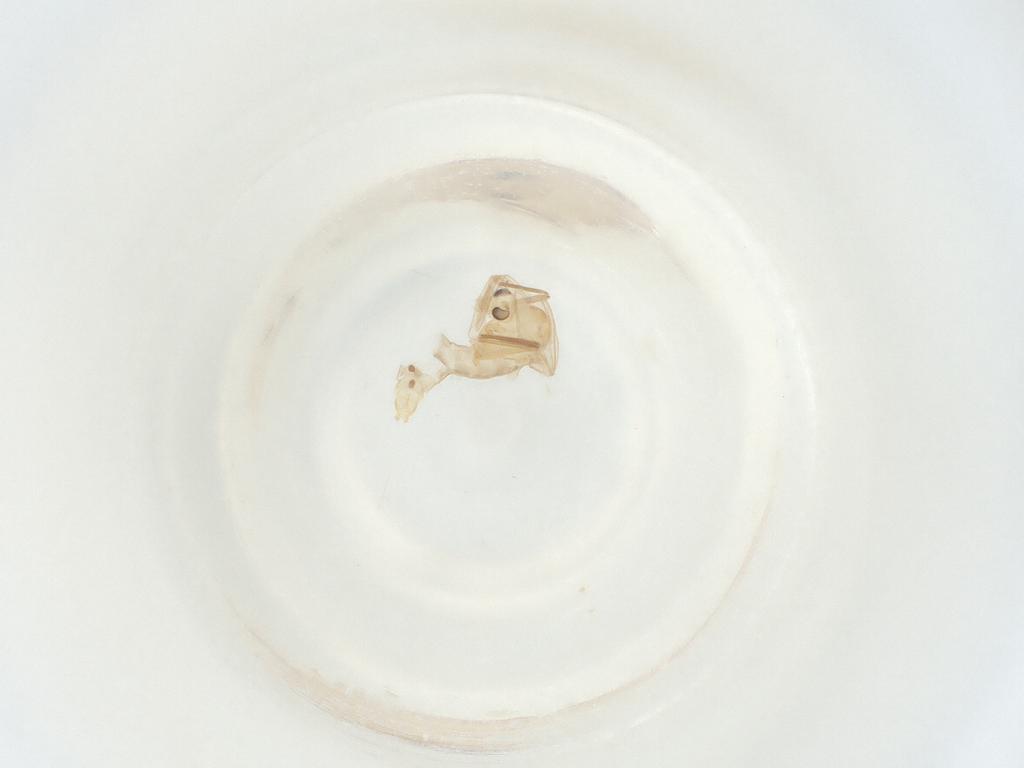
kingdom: Animalia
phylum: Arthropoda
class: Insecta
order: Diptera
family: Chironomidae
